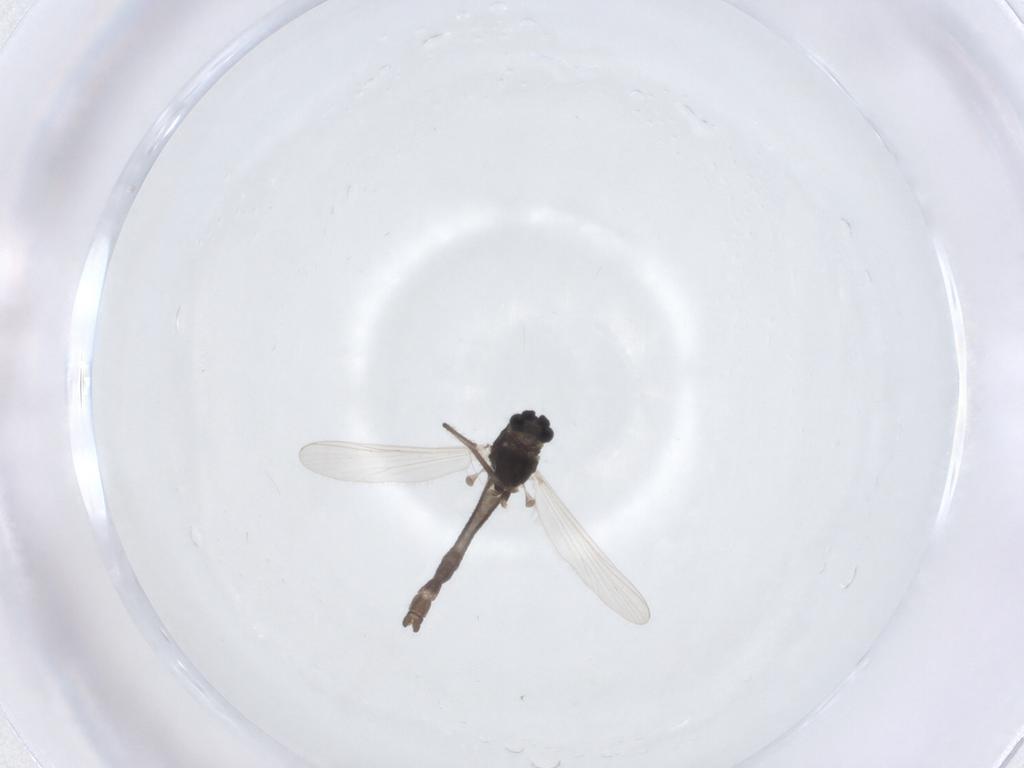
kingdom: Animalia
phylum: Arthropoda
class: Insecta
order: Diptera
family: Chironomidae
